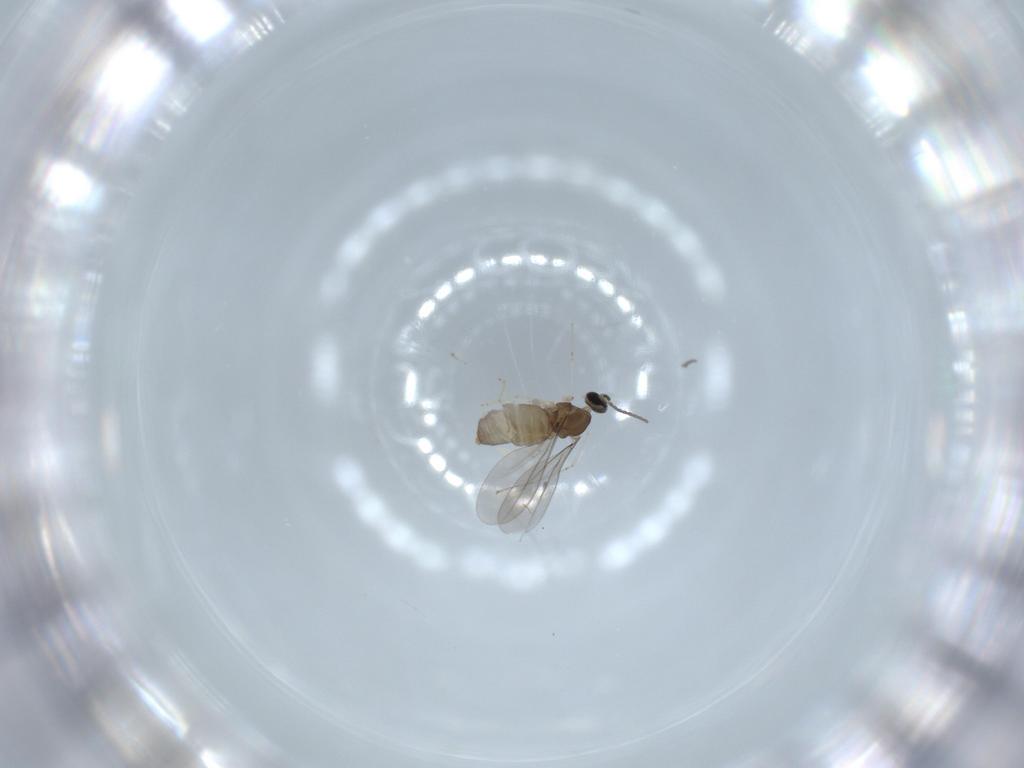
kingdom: Animalia
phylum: Arthropoda
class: Insecta
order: Diptera
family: Cecidomyiidae
